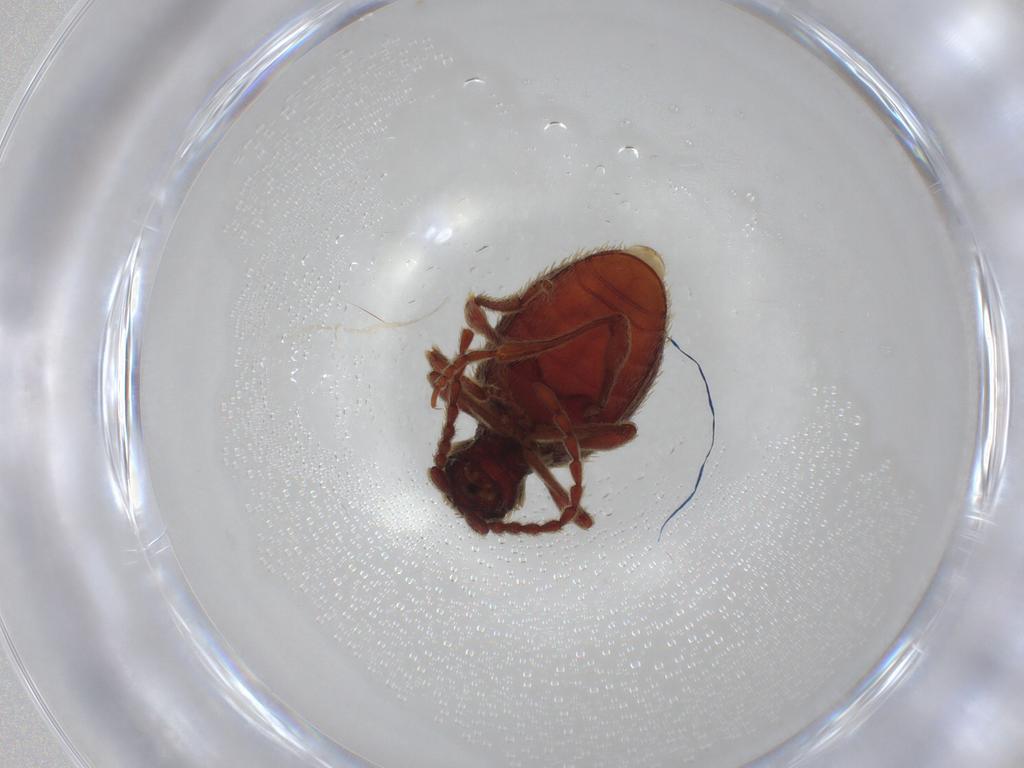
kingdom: Animalia
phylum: Arthropoda
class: Insecta
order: Coleoptera
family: Staphylinidae
